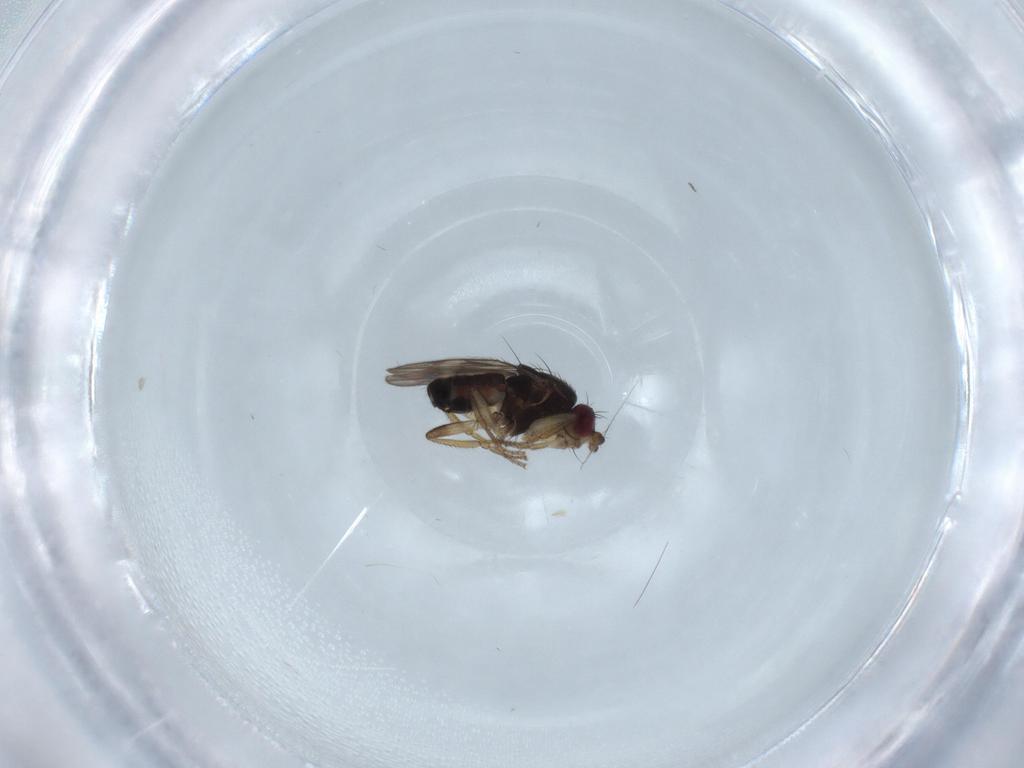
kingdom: Animalia
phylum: Arthropoda
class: Insecta
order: Diptera
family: Sphaeroceridae
